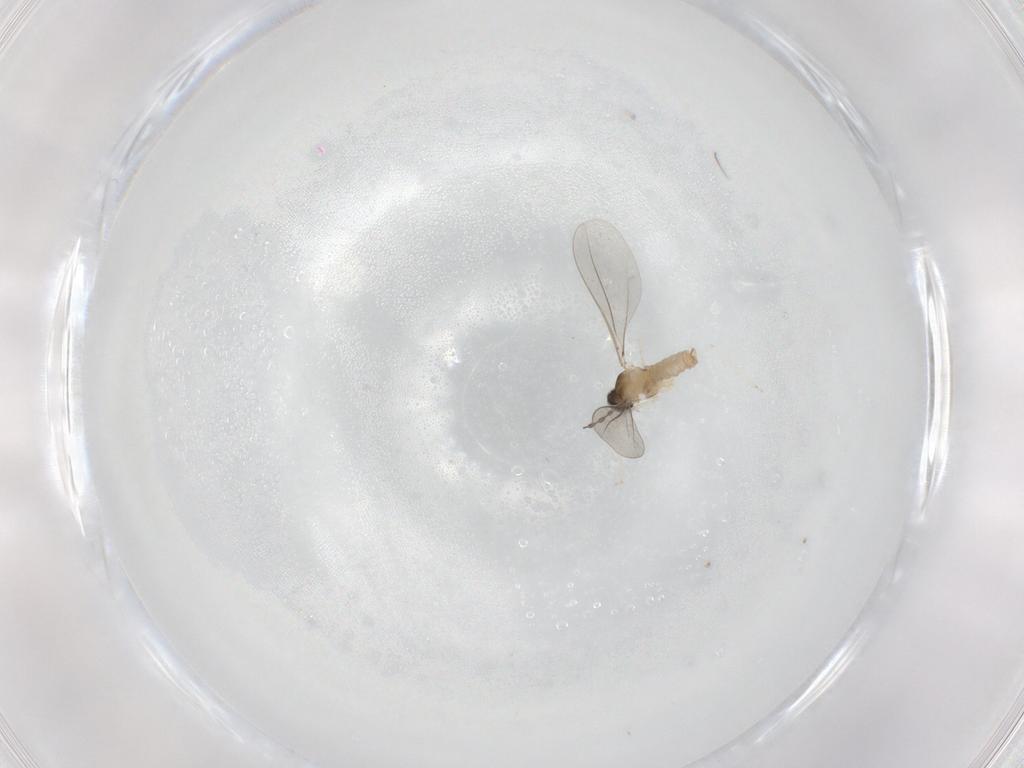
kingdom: Animalia
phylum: Arthropoda
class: Insecta
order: Diptera
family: Cecidomyiidae
